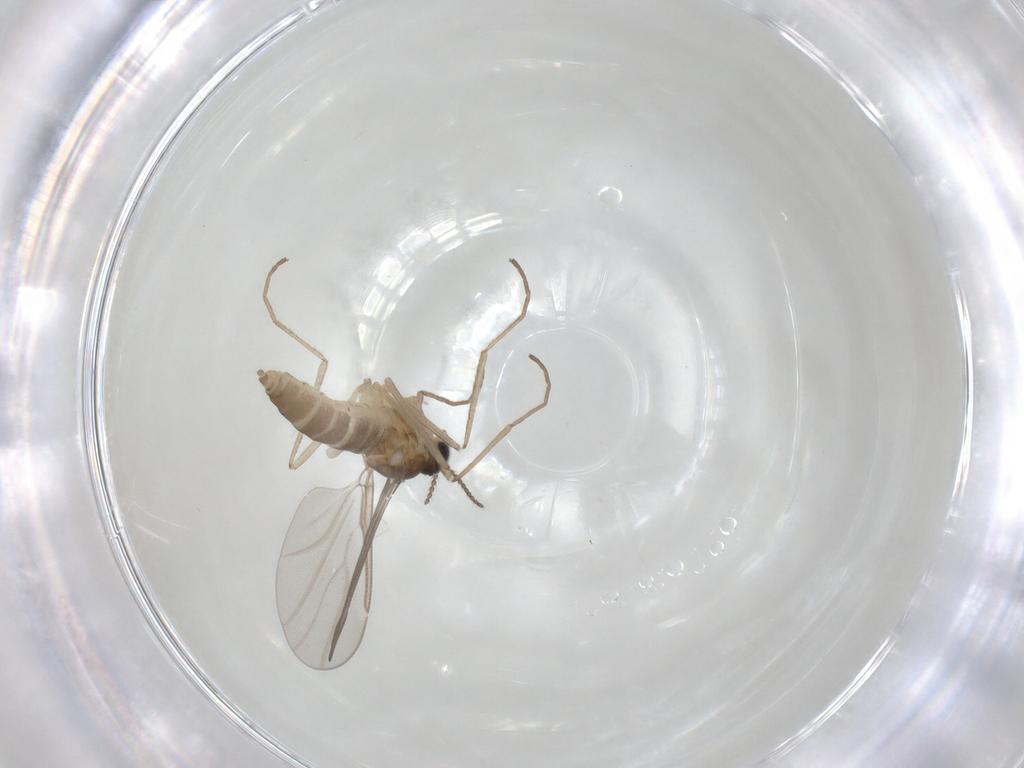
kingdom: Animalia
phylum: Arthropoda
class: Insecta
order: Diptera
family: Cecidomyiidae
